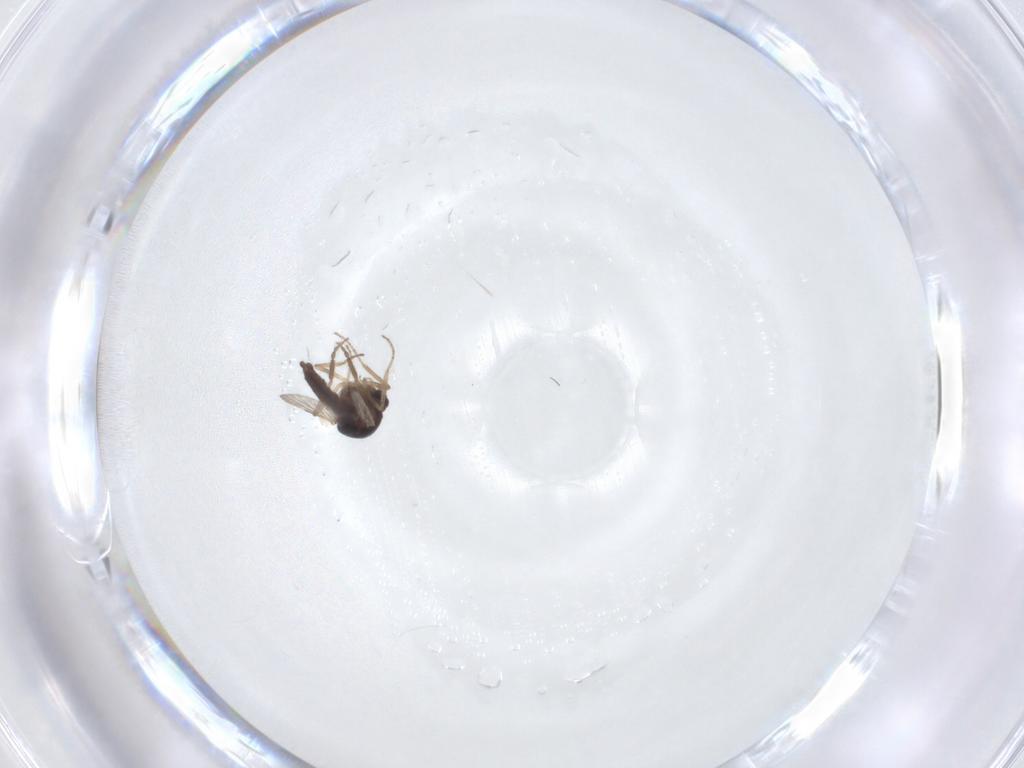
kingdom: Animalia
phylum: Arthropoda
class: Insecta
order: Diptera
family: Ceratopogonidae
